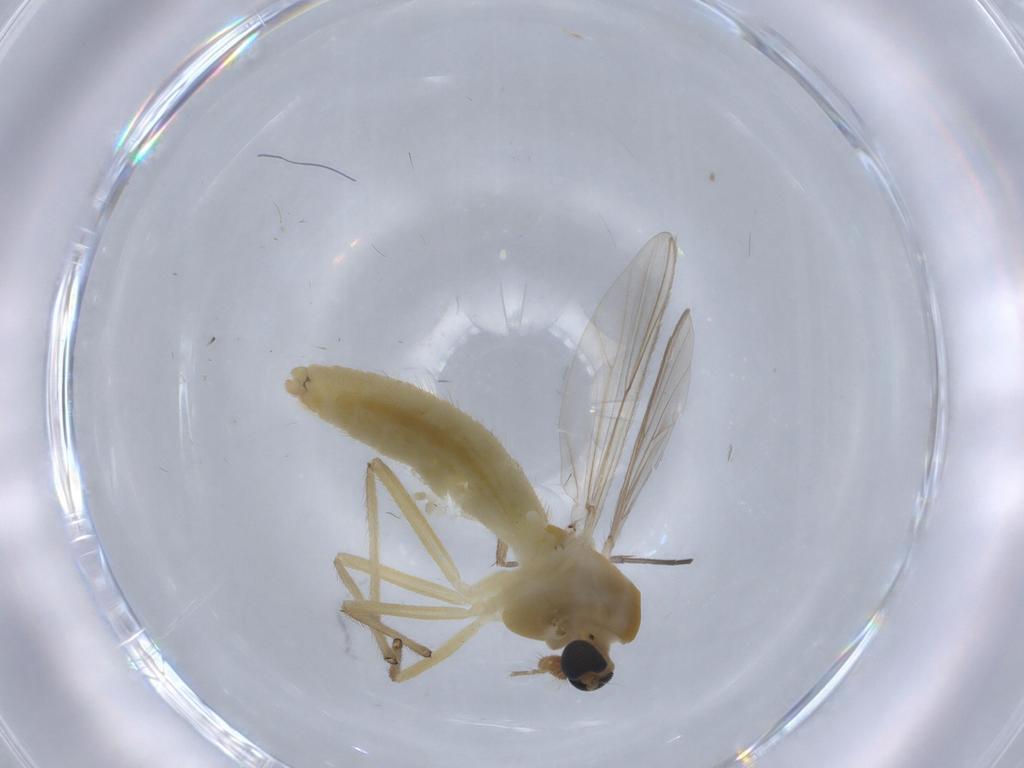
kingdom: Animalia
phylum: Arthropoda
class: Insecta
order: Diptera
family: Chironomidae
